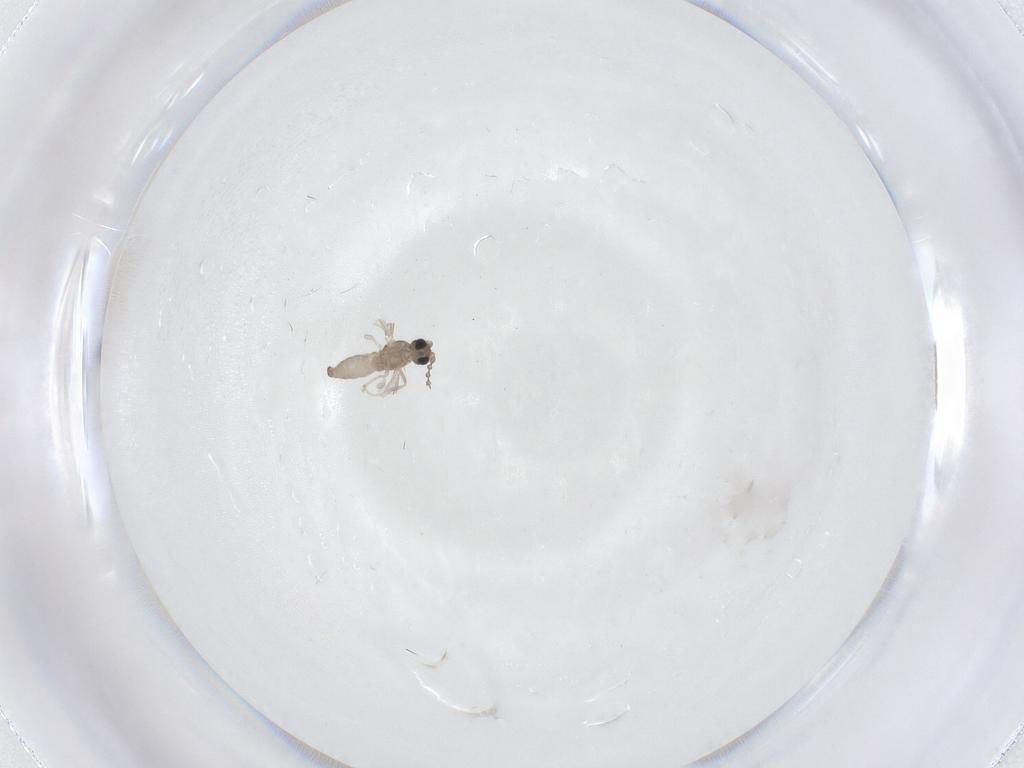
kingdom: Animalia
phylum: Arthropoda
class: Insecta
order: Diptera
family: Cecidomyiidae
